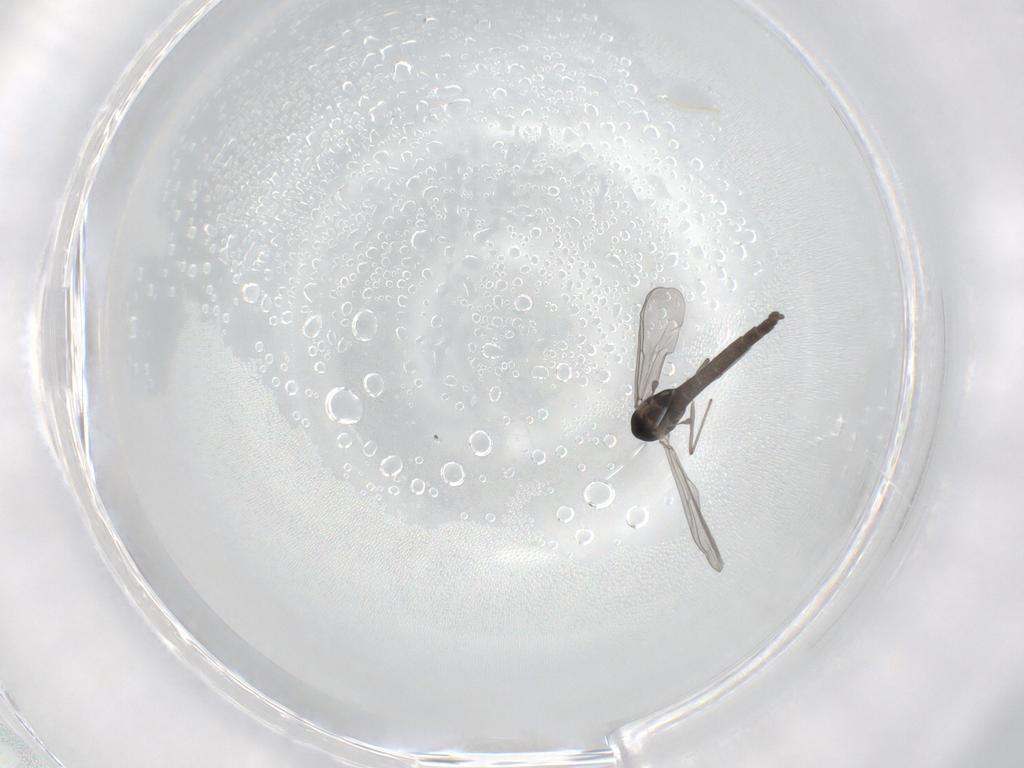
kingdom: Animalia
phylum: Arthropoda
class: Insecta
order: Diptera
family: Chironomidae
